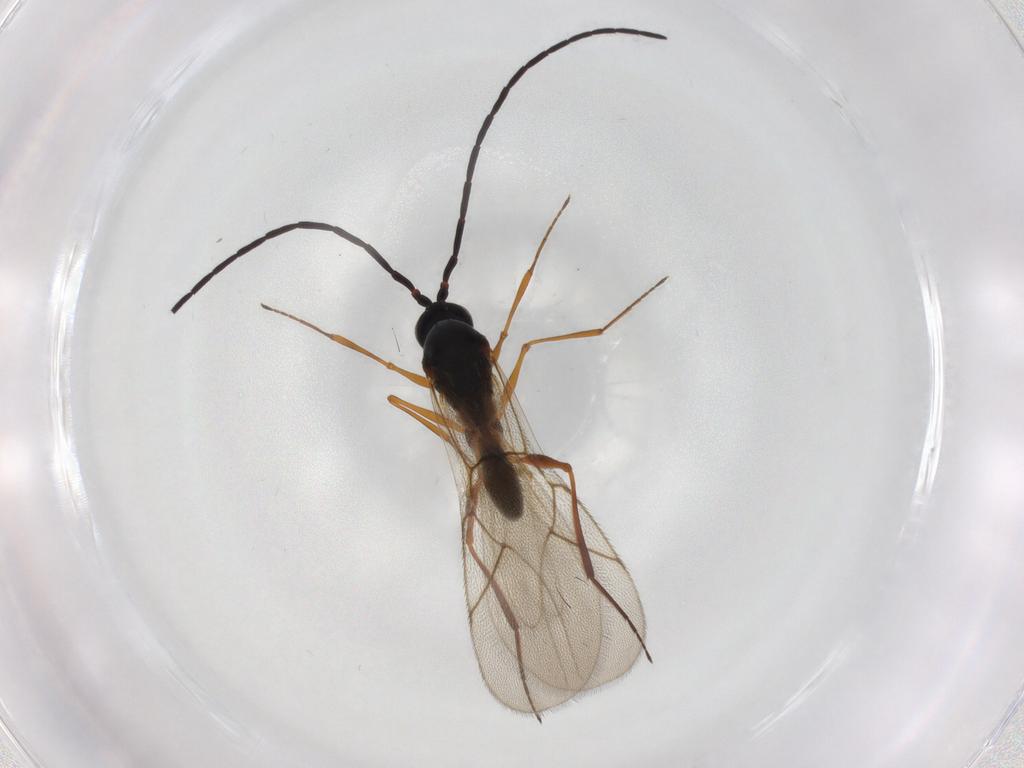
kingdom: Animalia
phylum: Arthropoda
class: Insecta
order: Hymenoptera
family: Figitidae
